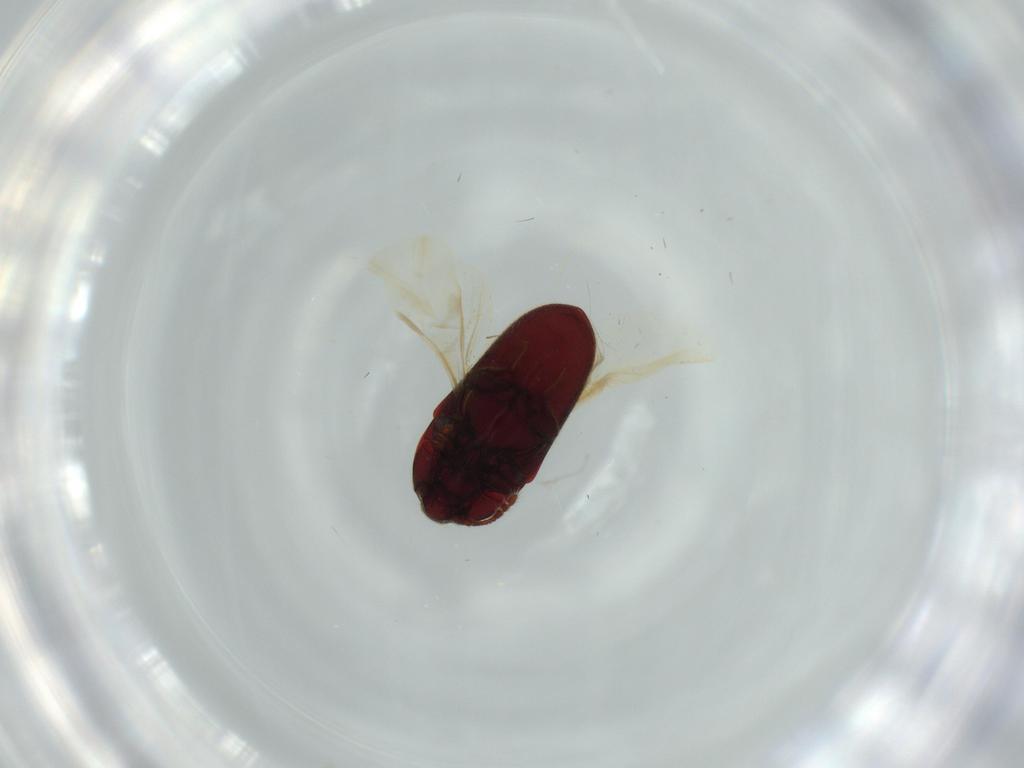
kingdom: Animalia
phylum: Arthropoda
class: Insecta
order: Coleoptera
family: Throscidae
